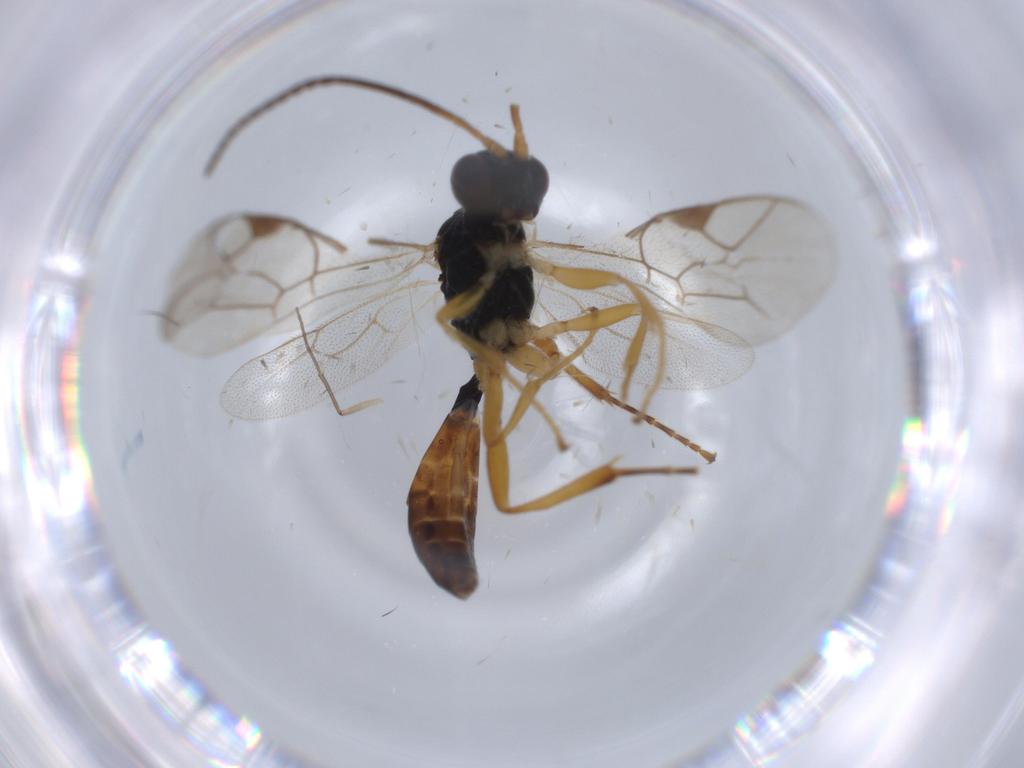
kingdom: Animalia
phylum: Arthropoda
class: Insecta
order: Hymenoptera
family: Ichneumonidae
